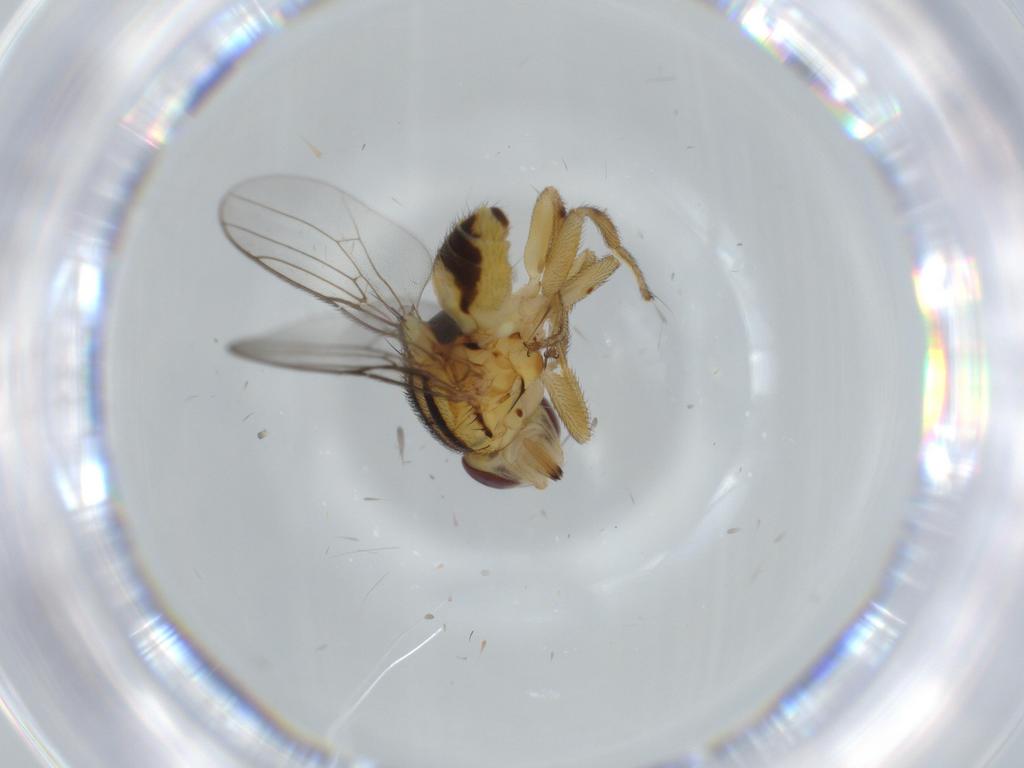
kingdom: Animalia
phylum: Arthropoda
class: Insecta
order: Diptera
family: Chloropidae
